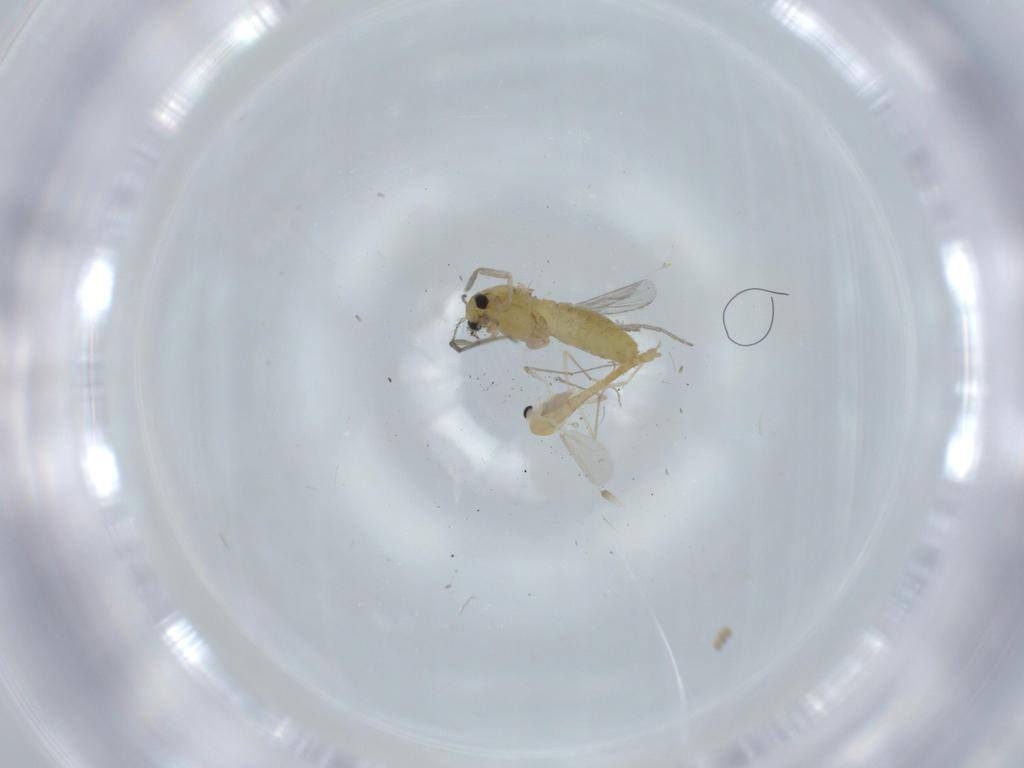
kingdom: Animalia
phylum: Arthropoda
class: Insecta
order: Diptera
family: Chironomidae
